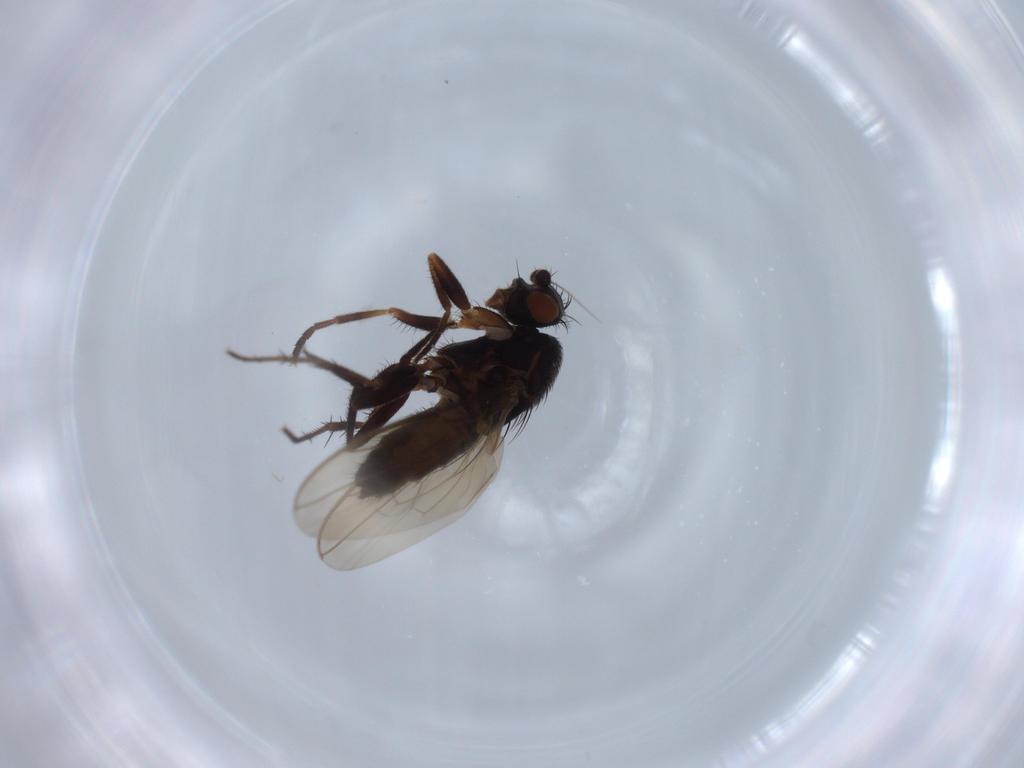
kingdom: Animalia
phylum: Arthropoda
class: Insecta
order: Diptera
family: Sphaeroceridae
